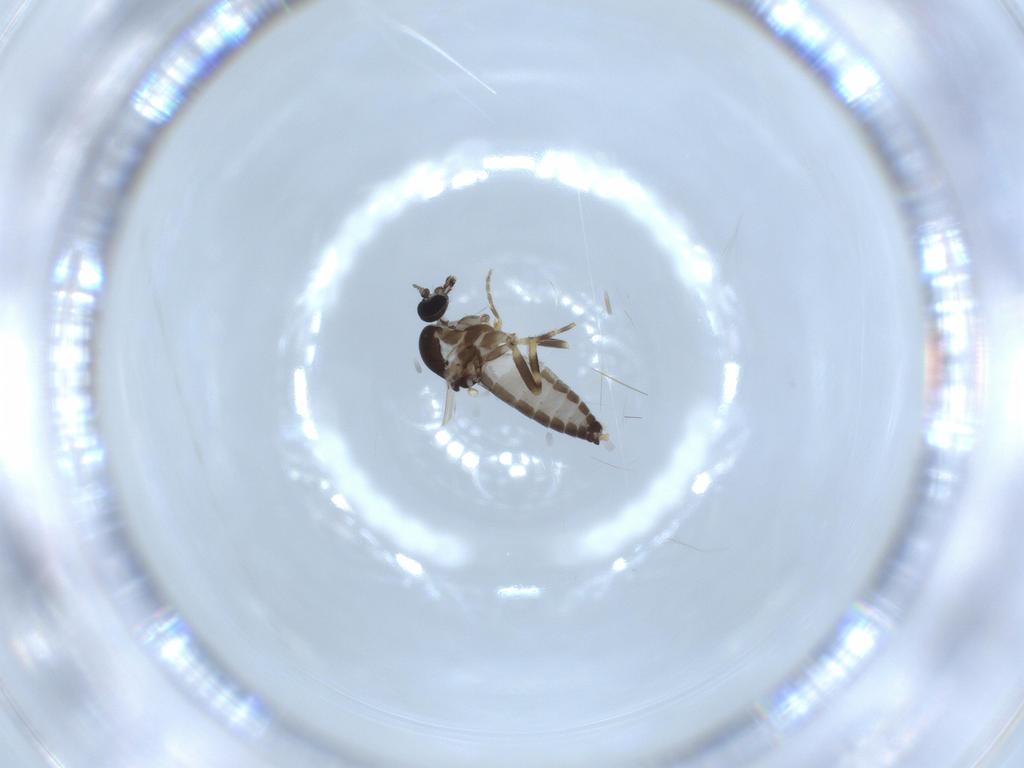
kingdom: Animalia
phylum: Arthropoda
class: Insecta
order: Diptera
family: Ceratopogonidae
